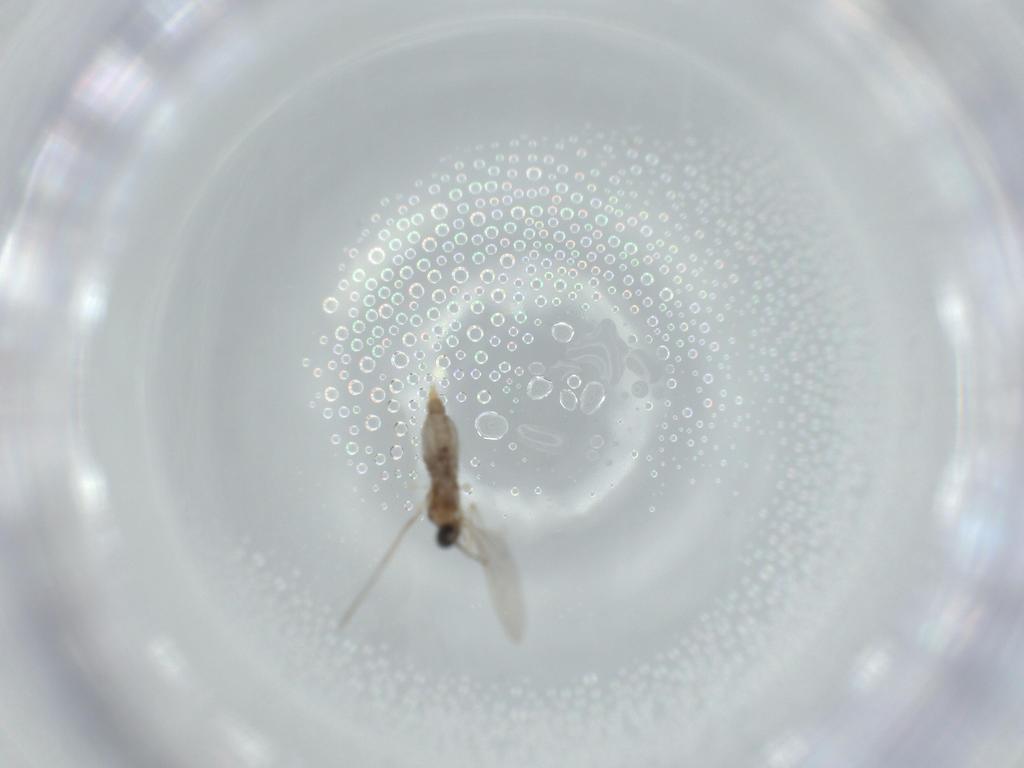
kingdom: Animalia
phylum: Arthropoda
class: Insecta
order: Diptera
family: Cecidomyiidae
